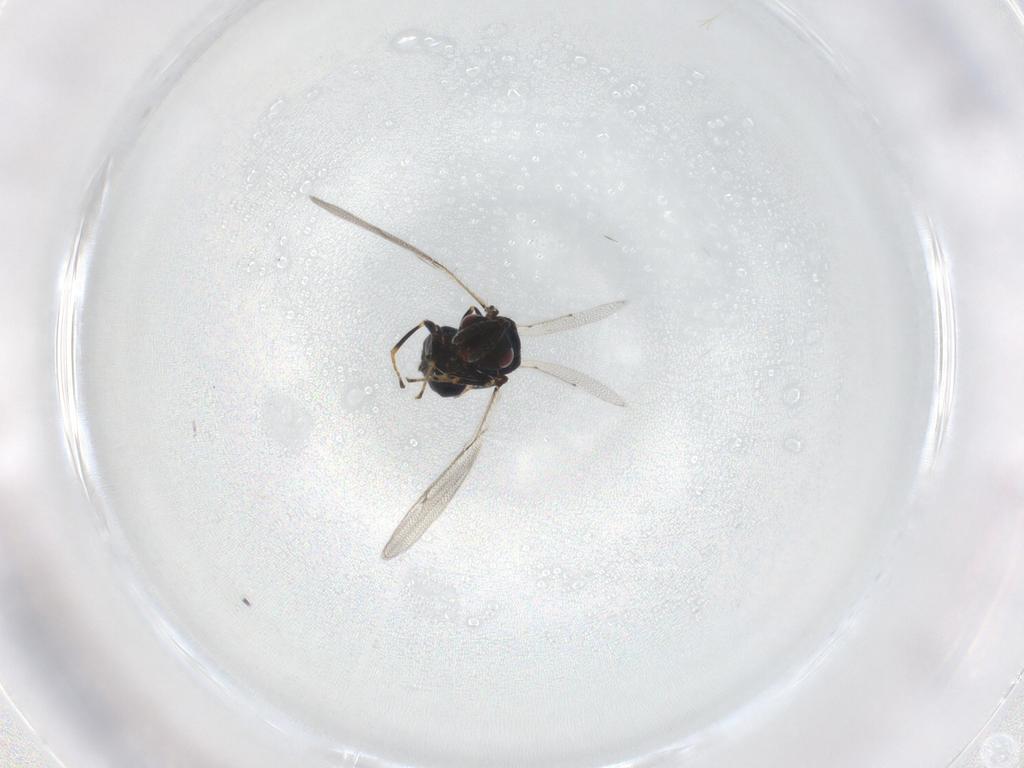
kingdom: Animalia
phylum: Arthropoda
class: Insecta
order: Hymenoptera
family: Pteromalidae
